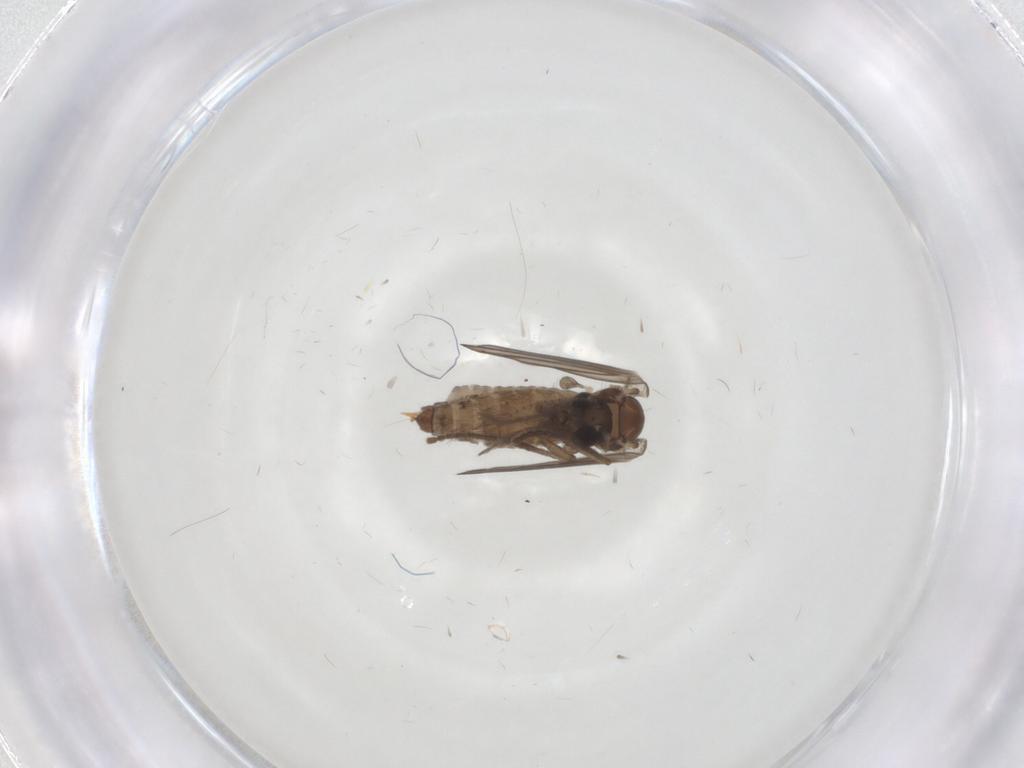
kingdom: Animalia
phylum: Arthropoda
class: Insecta
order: Diptera
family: Psychodidae
